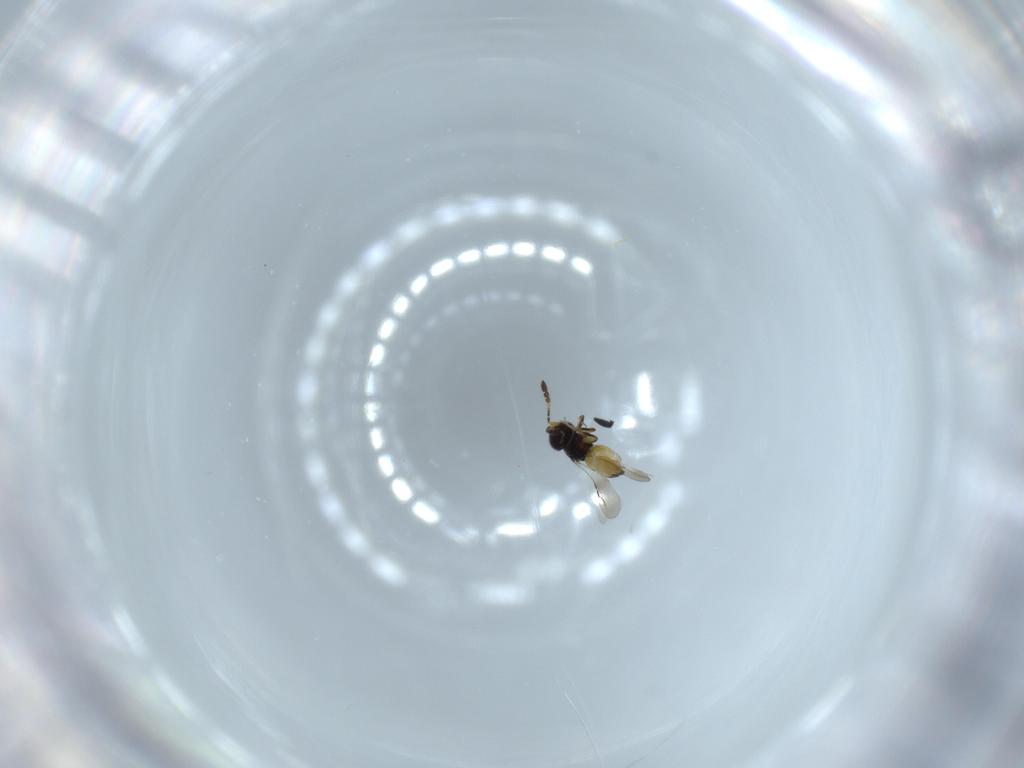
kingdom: Animalia
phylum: Arthropoda
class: Insecta
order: Hymenoptera
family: Pteromalidae
